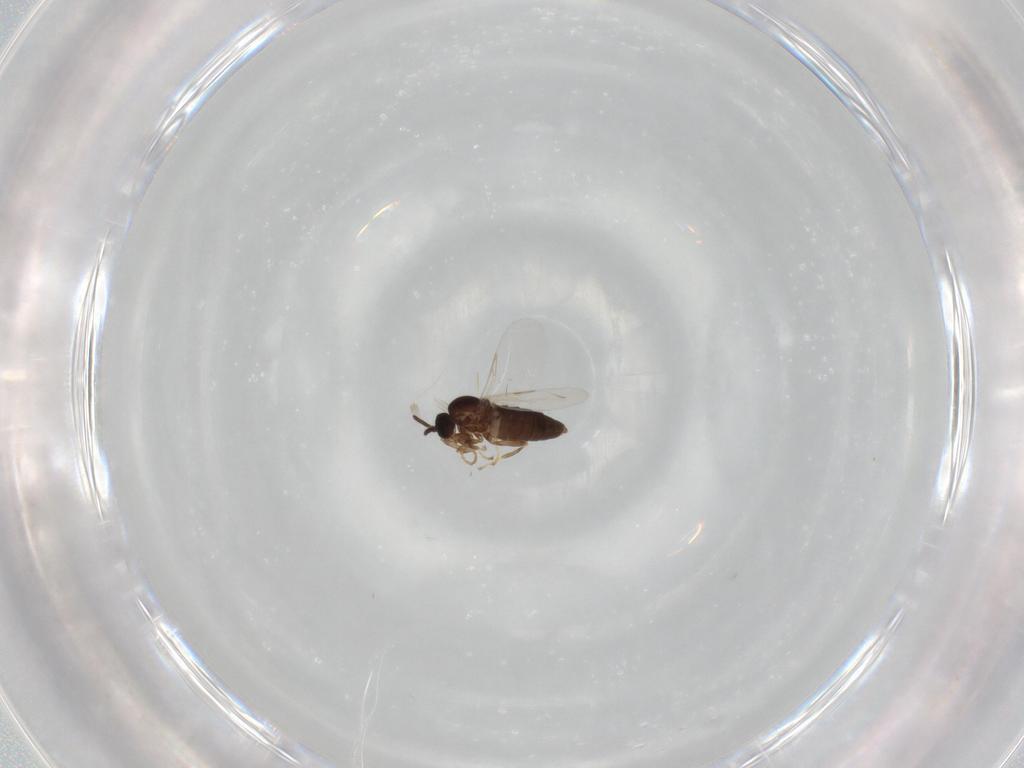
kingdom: Animalia
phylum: Arthropoda
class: Insecta
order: Diptera
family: Scatopsidae
